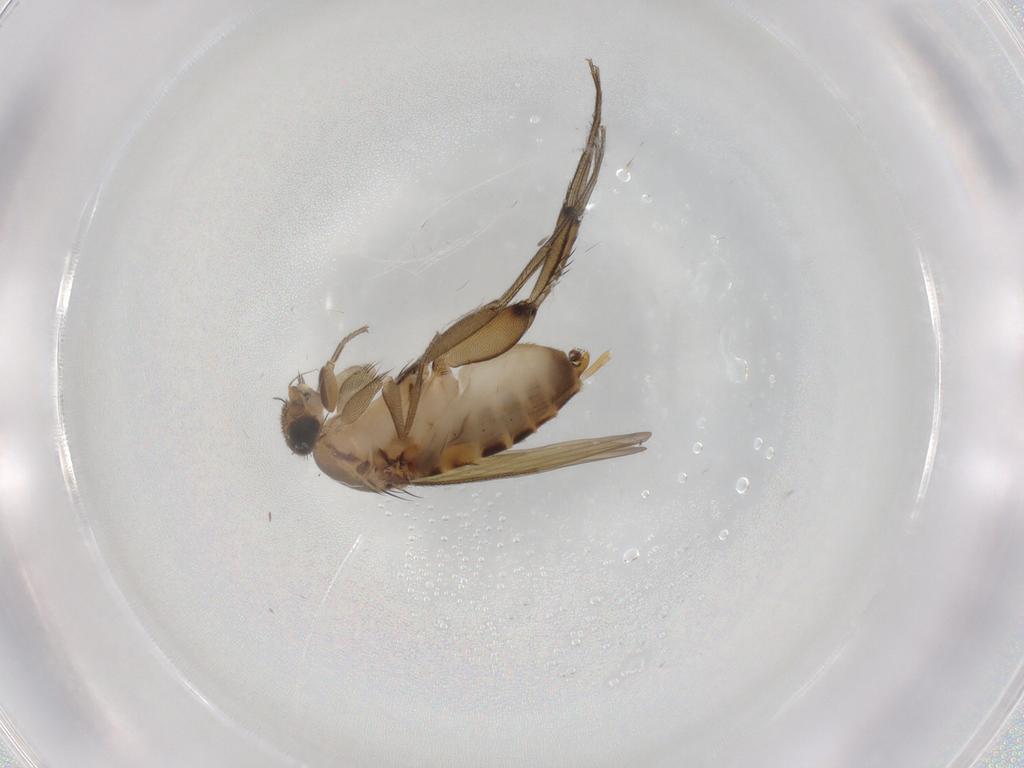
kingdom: Animalia
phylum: Arthropoda
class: Insecta
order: Diptera
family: Phoridae
